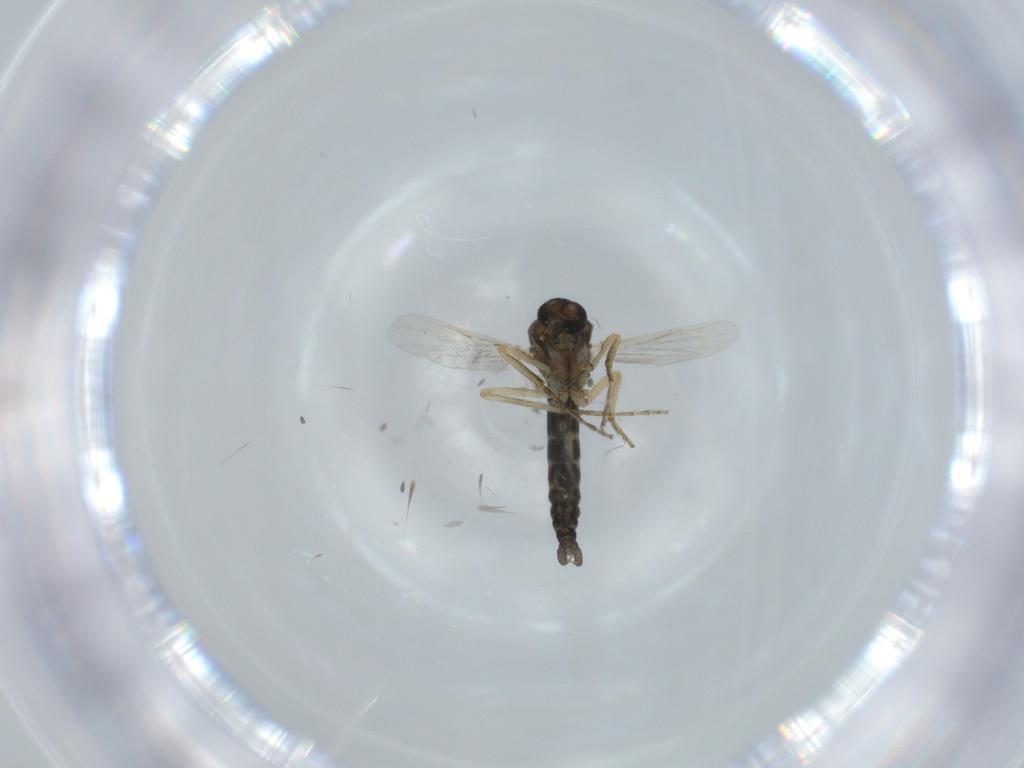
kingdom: Animalia
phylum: Arthropoda
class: Insecta
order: Diptera
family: Ceratopogonidae
